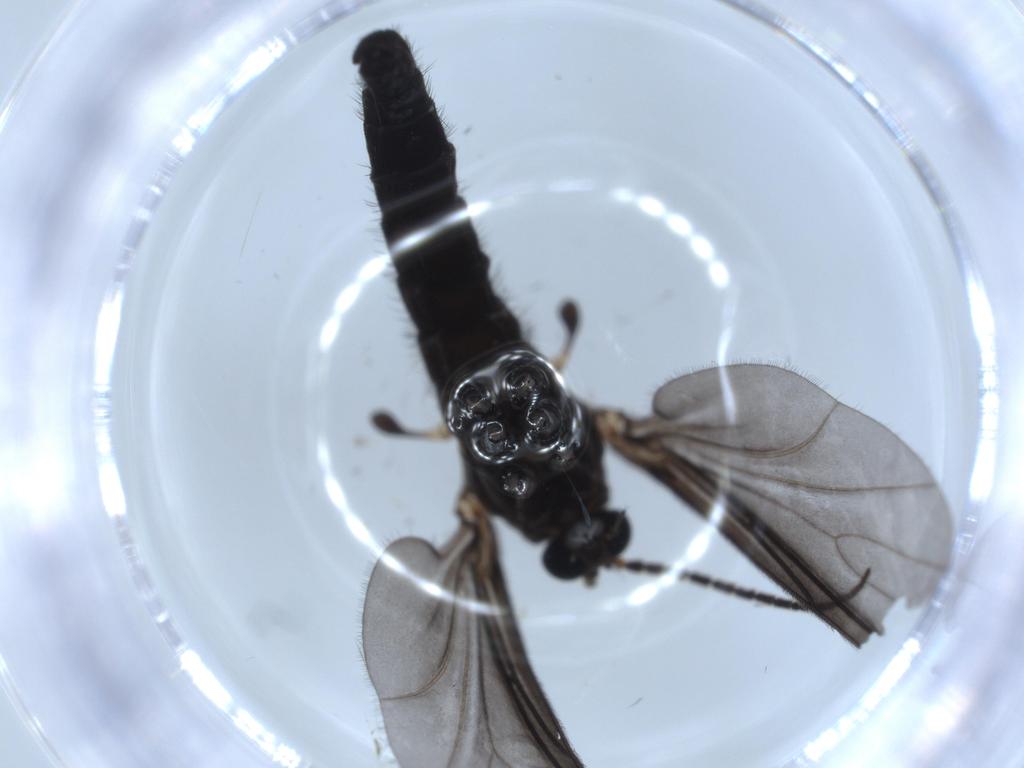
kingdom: Animalia
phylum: Arthropoda
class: Insecta
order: Diptera
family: Sciaridae
